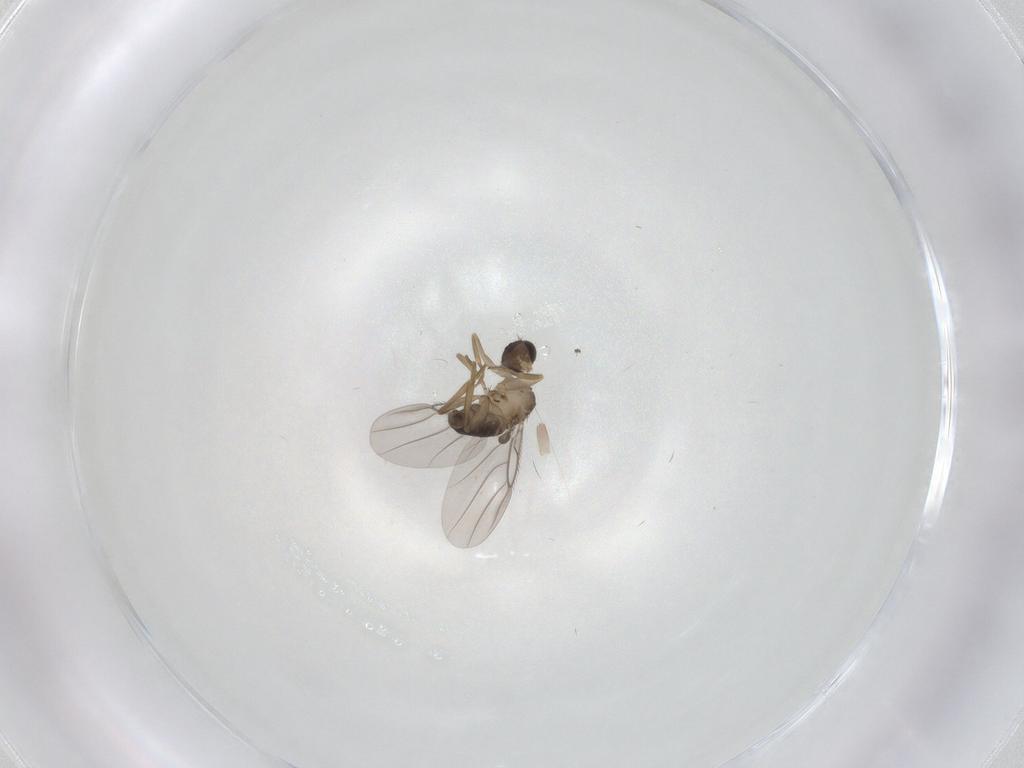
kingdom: Animalia
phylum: Arthropoda
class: Insecta
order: Diptera
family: Phoridae
